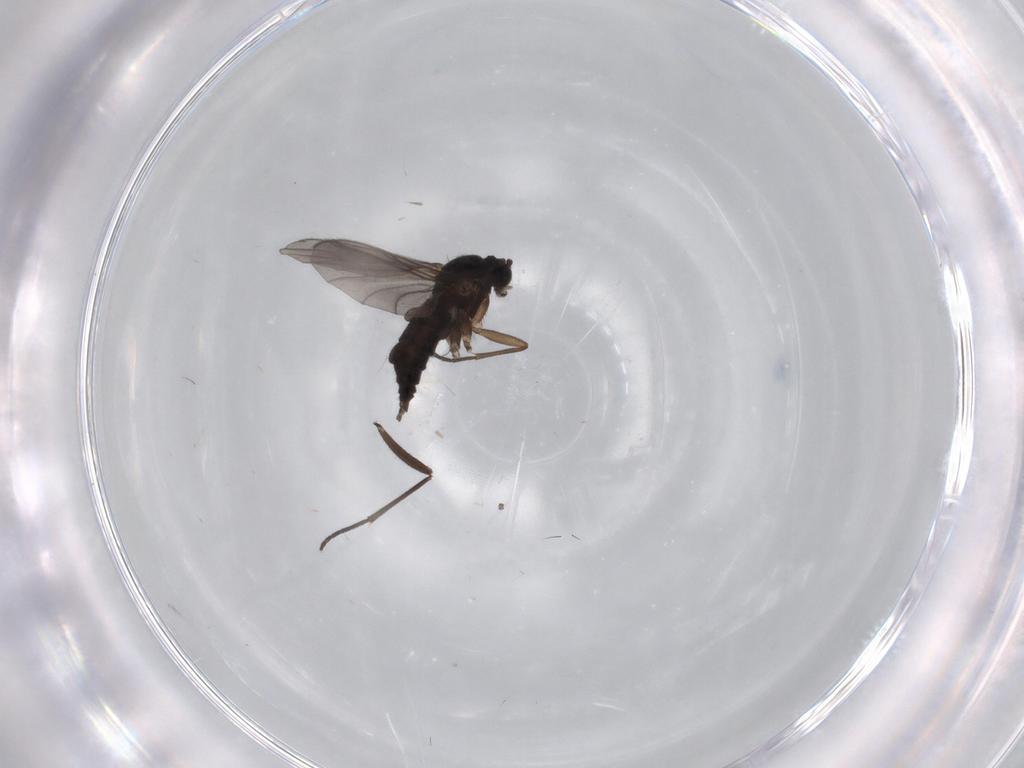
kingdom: Animalia
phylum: Arthropoda
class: Insecta
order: Diptera
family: Sciaridae
